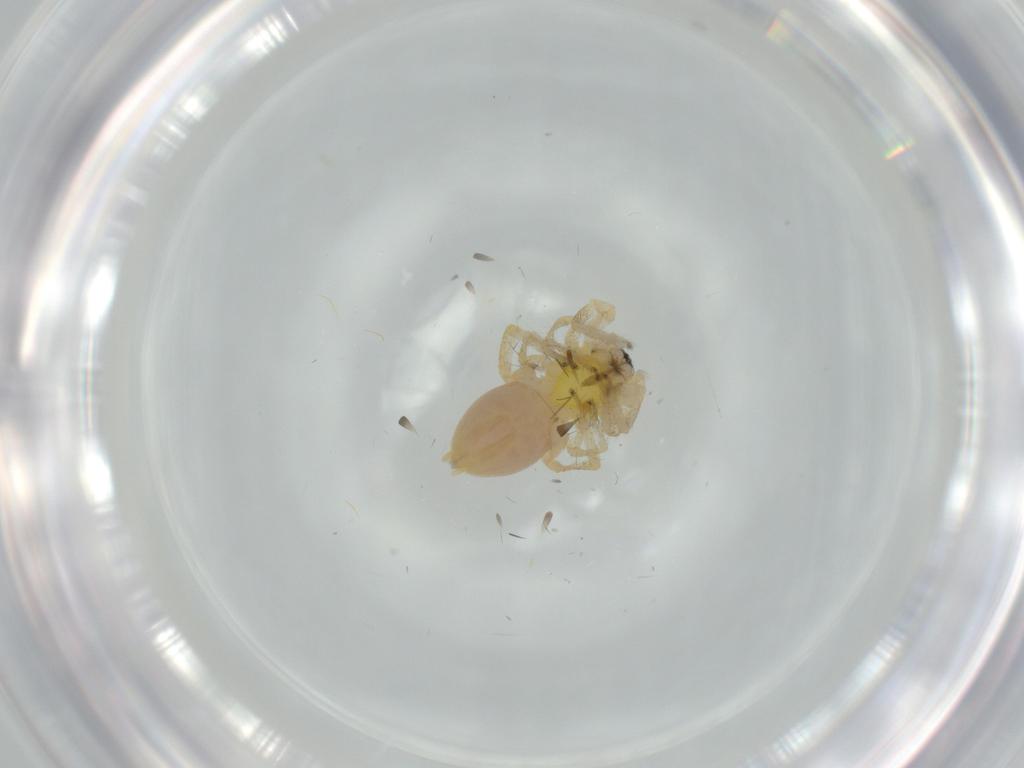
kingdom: Animalia
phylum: Arthropoda
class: Arachnida
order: Araneae
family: Anyphaenidae
